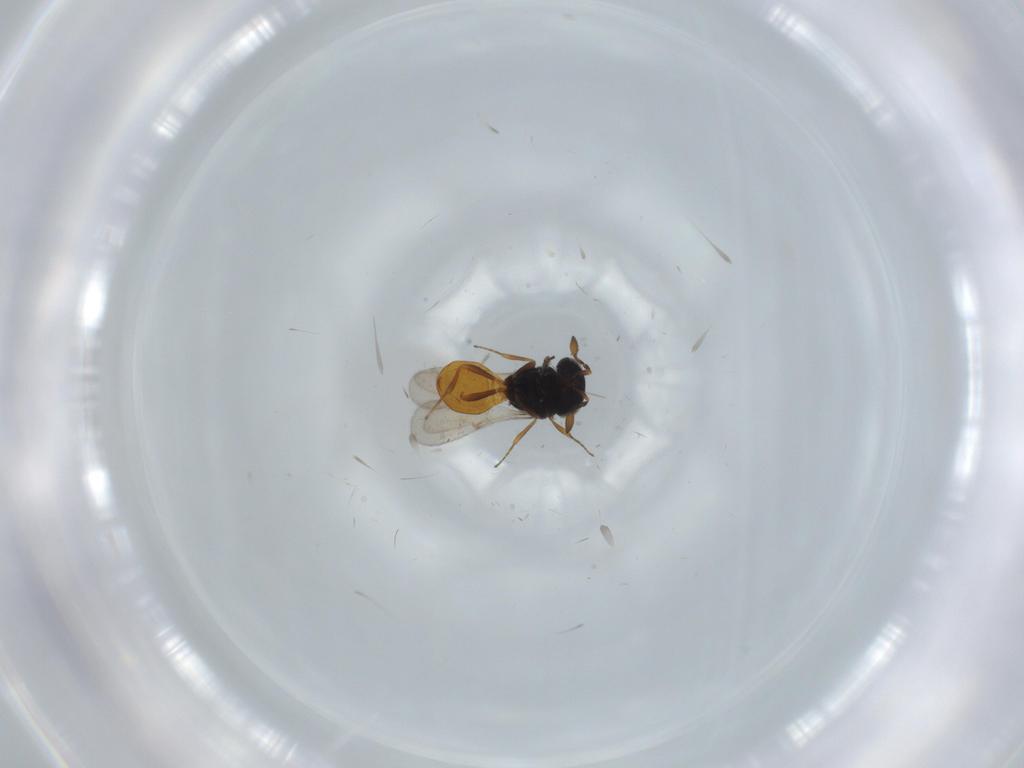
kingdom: Animalia
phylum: Arthropoda
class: Insecta
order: Hymenoptera
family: Scelionidae
